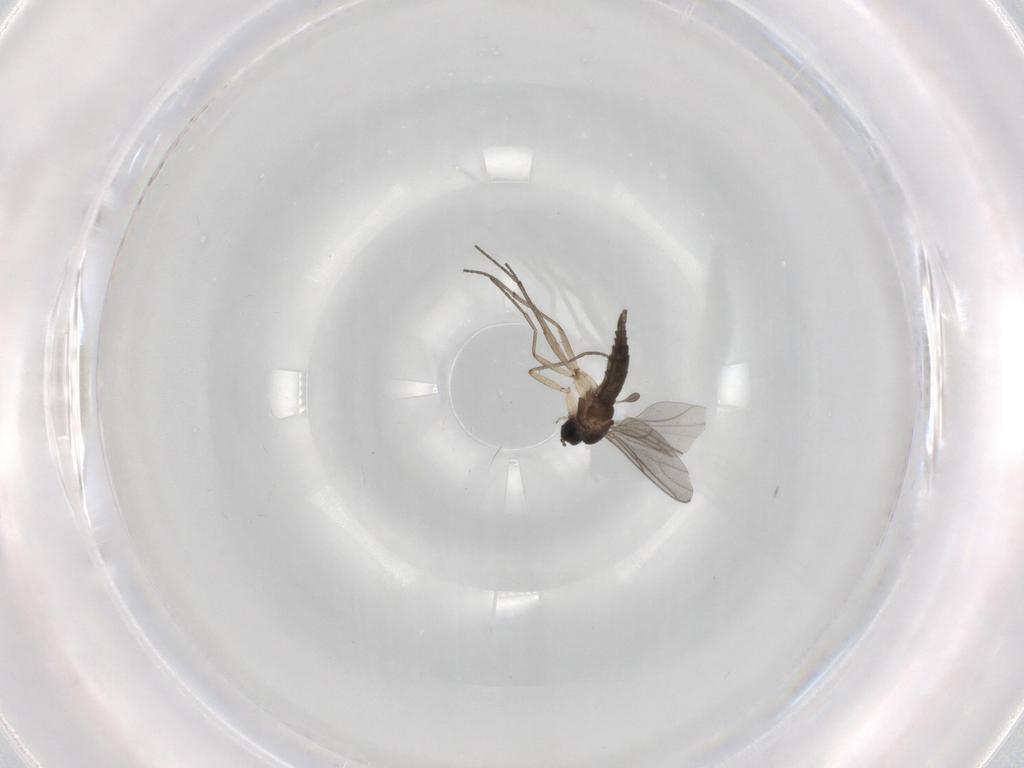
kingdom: Animalia
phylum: Arthropoda
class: Insecta
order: Diptera
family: Sciaridae
